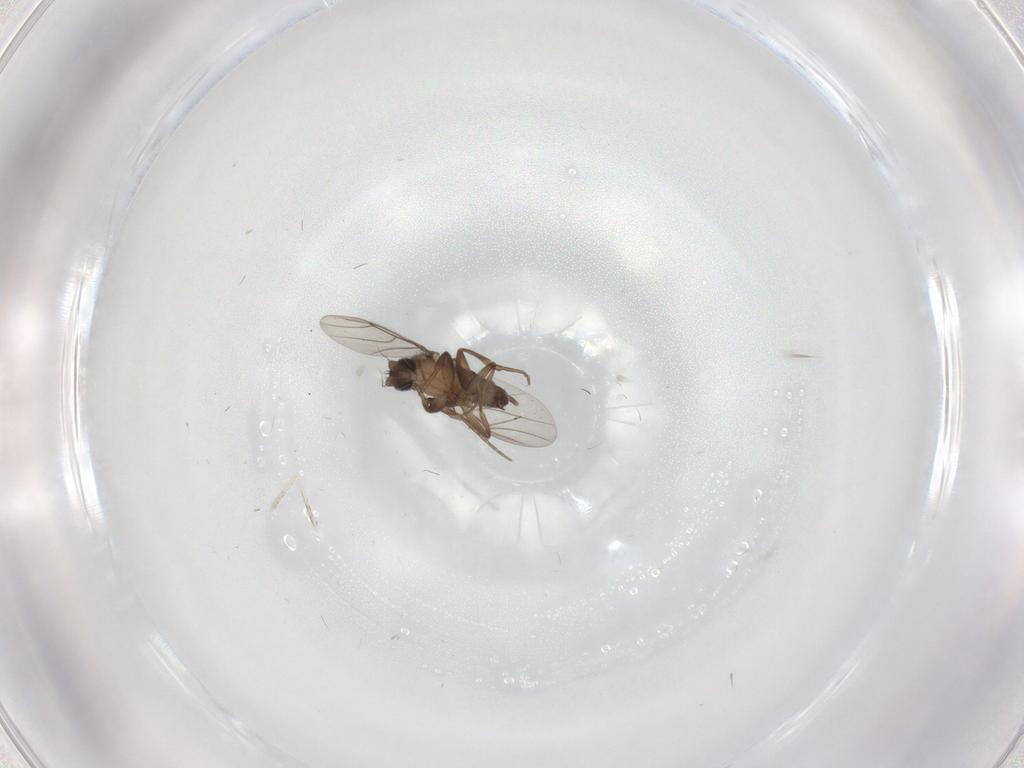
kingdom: Animalia
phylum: Arthropoda
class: Insecta
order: Diptera
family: Phoridae
